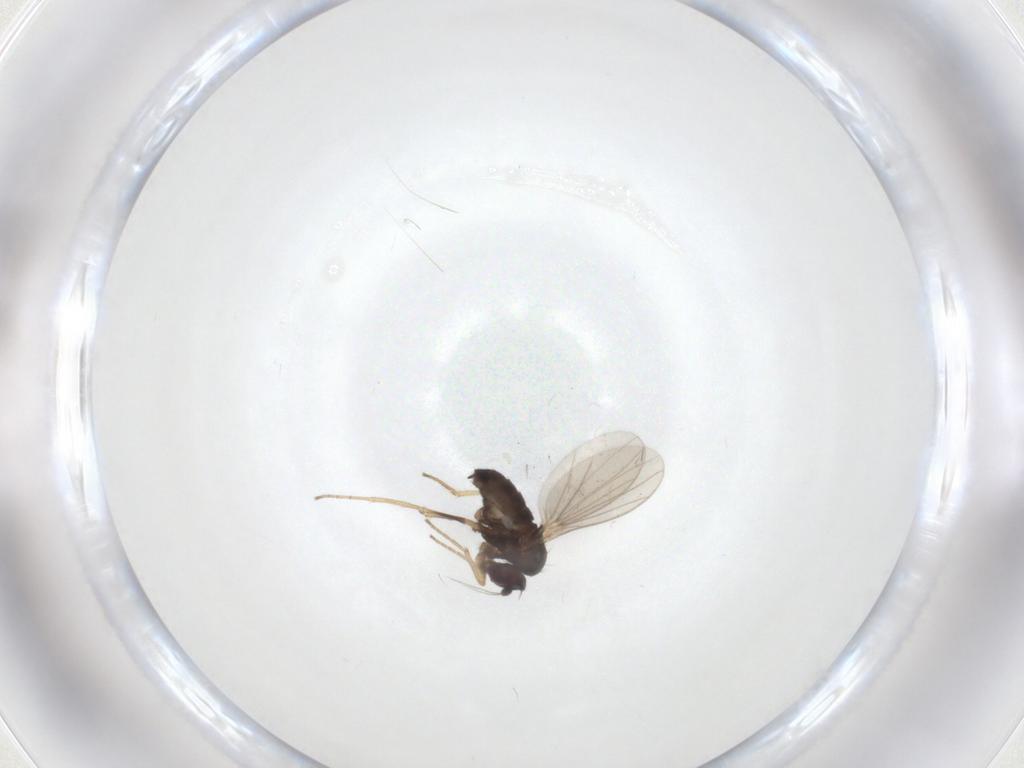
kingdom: Animalia
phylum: Arthropoda
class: Insecta
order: Diptera
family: Dolichopodidae
